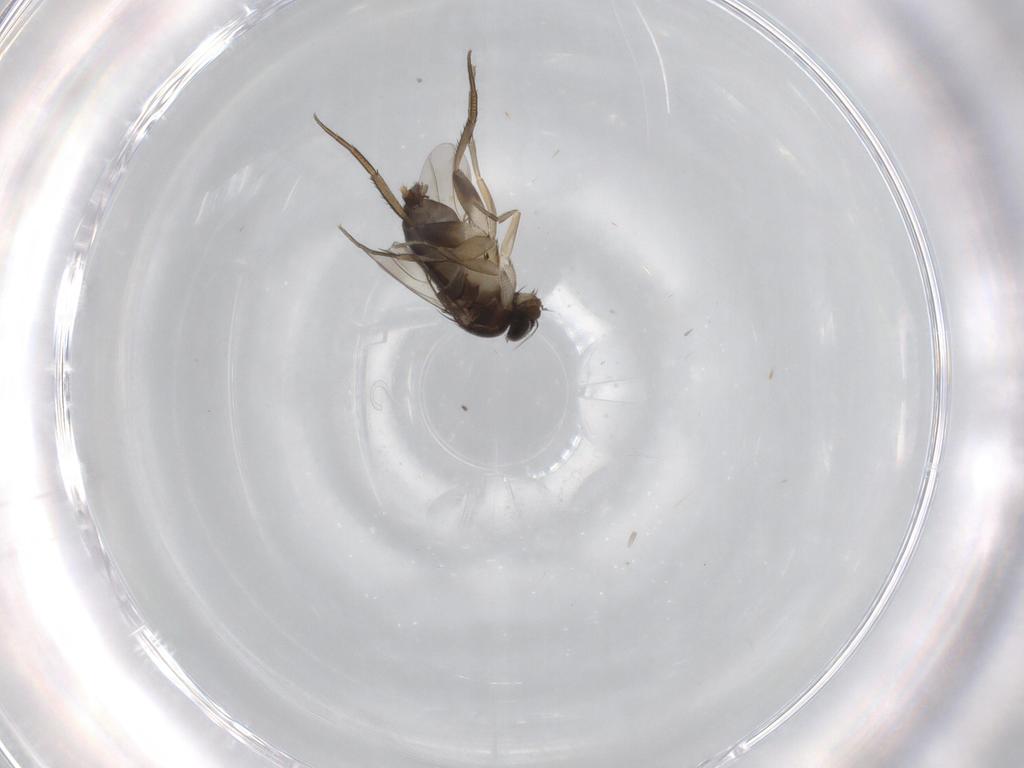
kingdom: Animalia
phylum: Arthropoda
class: Insecta
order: Diptera
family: Phoridae
